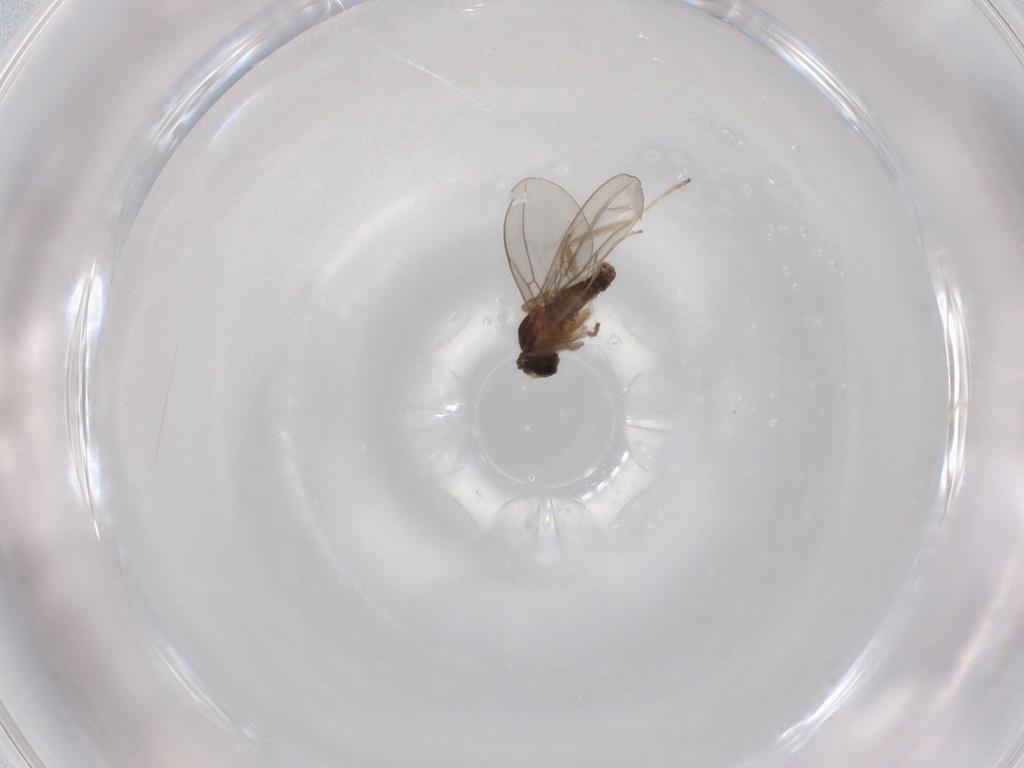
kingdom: Animalia
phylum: Arthropoda
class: Insecta
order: Diptera
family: Cecidomyiidae
